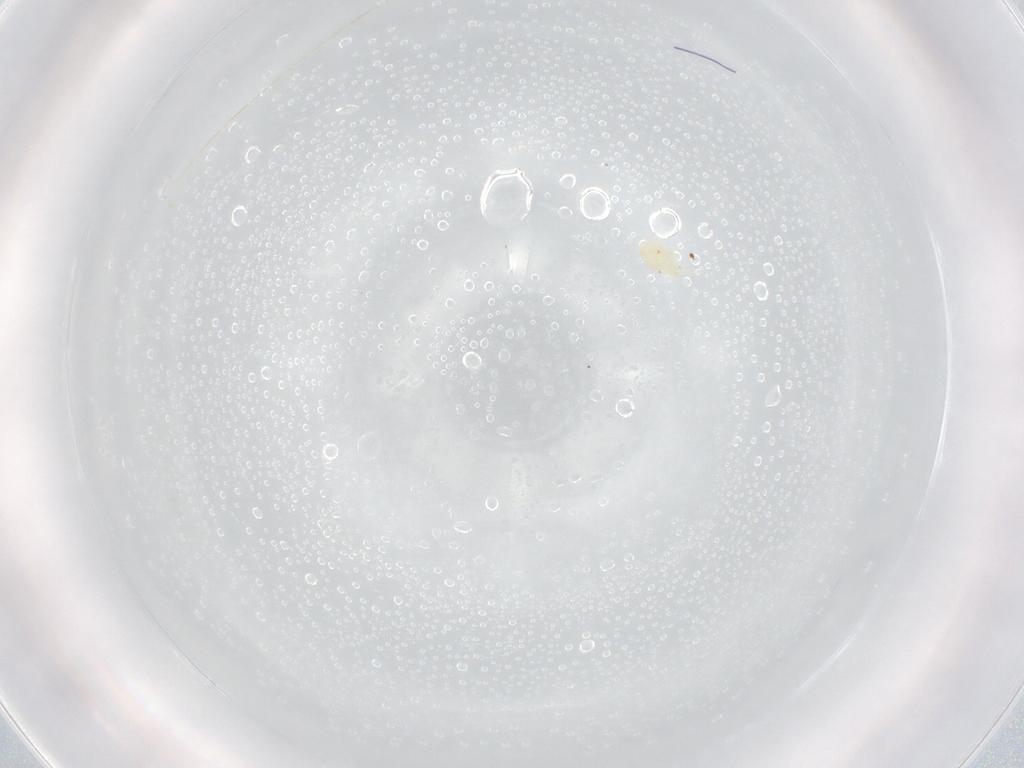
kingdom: Animalia
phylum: Arthropoda
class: Arachnida
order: Trombidiformes
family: Eupodidae
